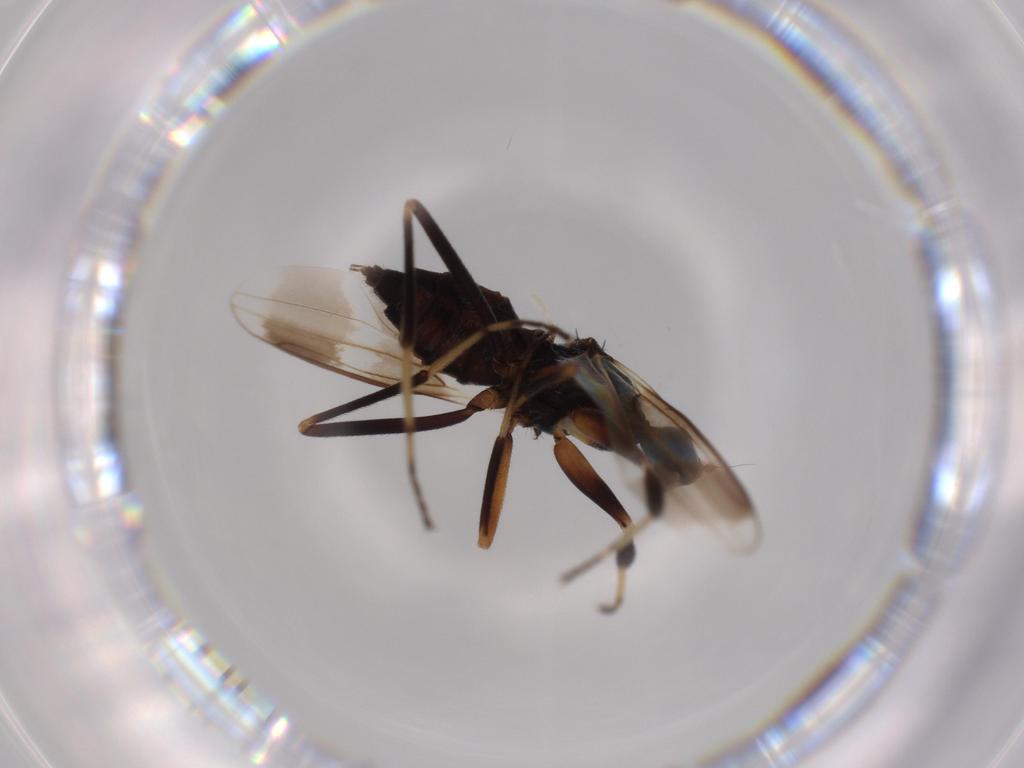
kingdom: Animalia
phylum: Arthropoda
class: Insecta
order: Diptera
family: Hybotidae
